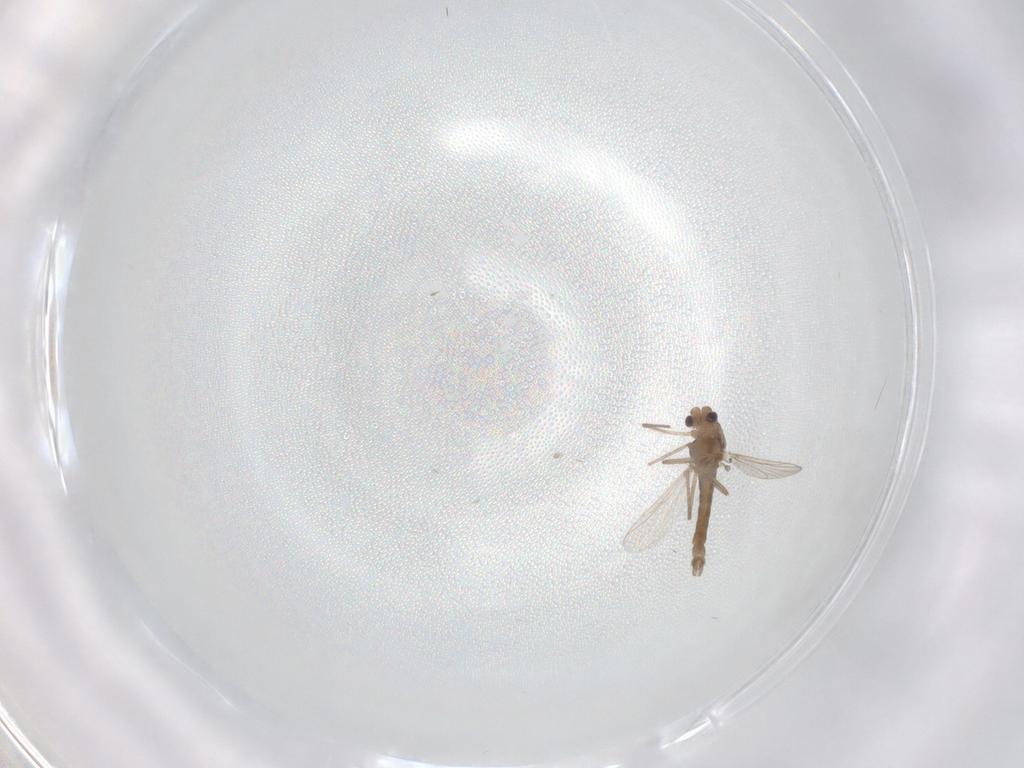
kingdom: Animalia
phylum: Arthropoda
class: Insecta
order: Diptera
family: Chironomidae
